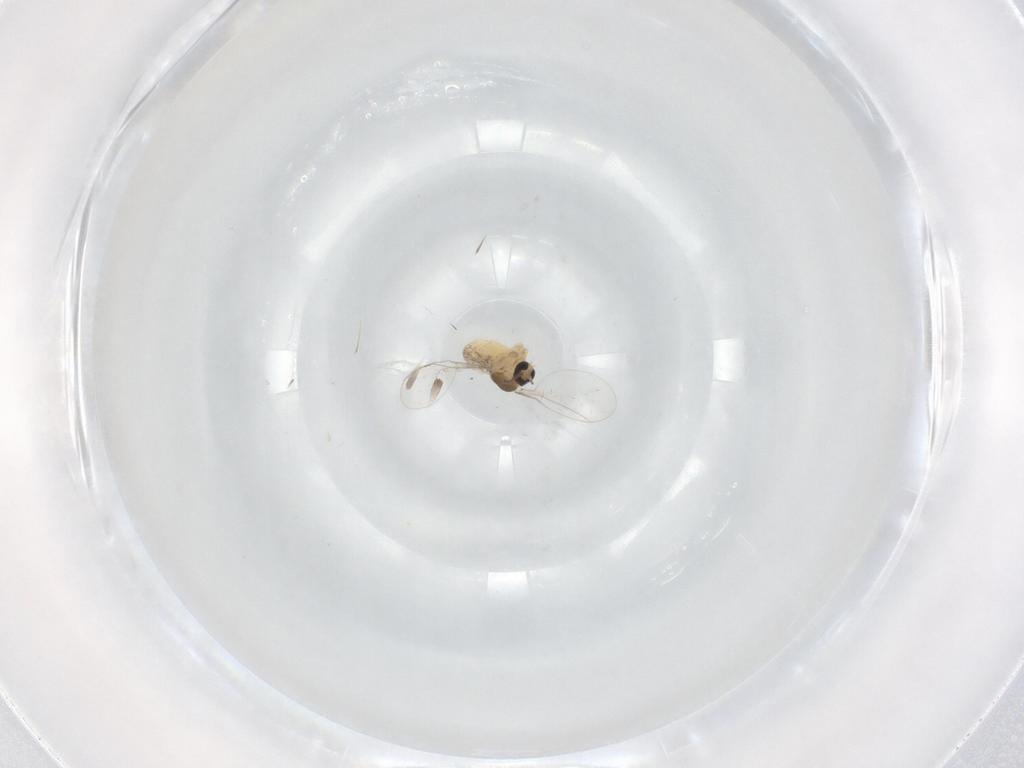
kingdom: Animalia
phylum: Arthropoda
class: Insecta
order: Diptera
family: Cecidomyiidae
